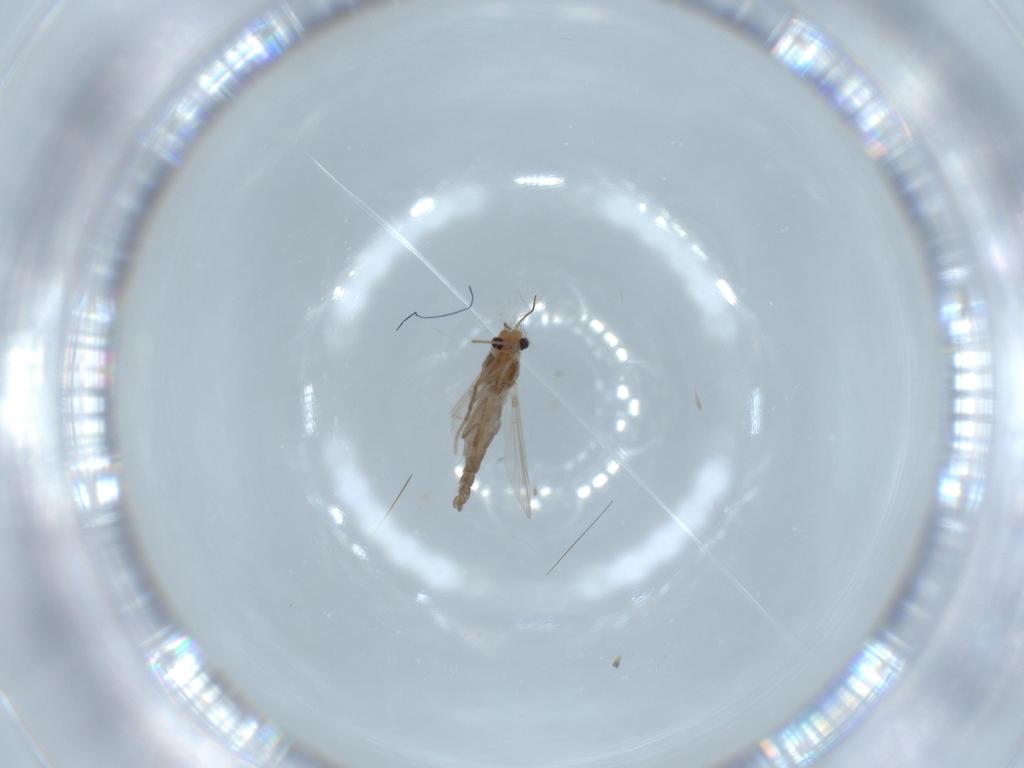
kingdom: Animalia
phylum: Arthropoda
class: Insecta
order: Diptera
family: Chironomidae
